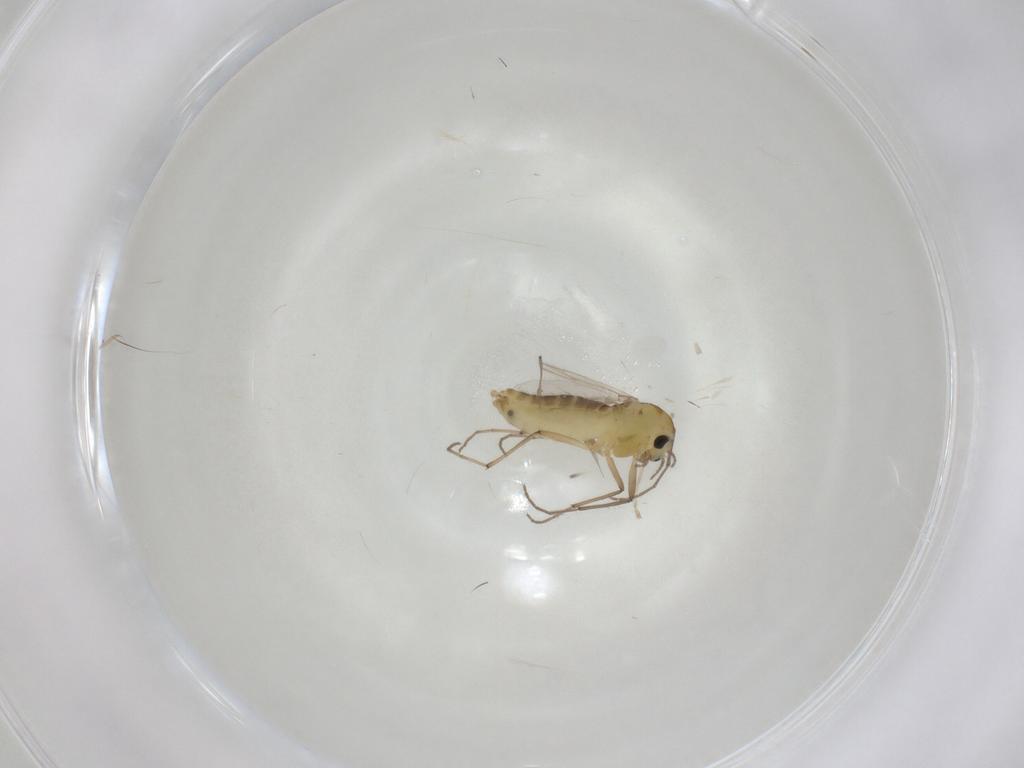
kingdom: Animalia
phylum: Arthropoda
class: Insecta
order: Diptera
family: Chironomidae
